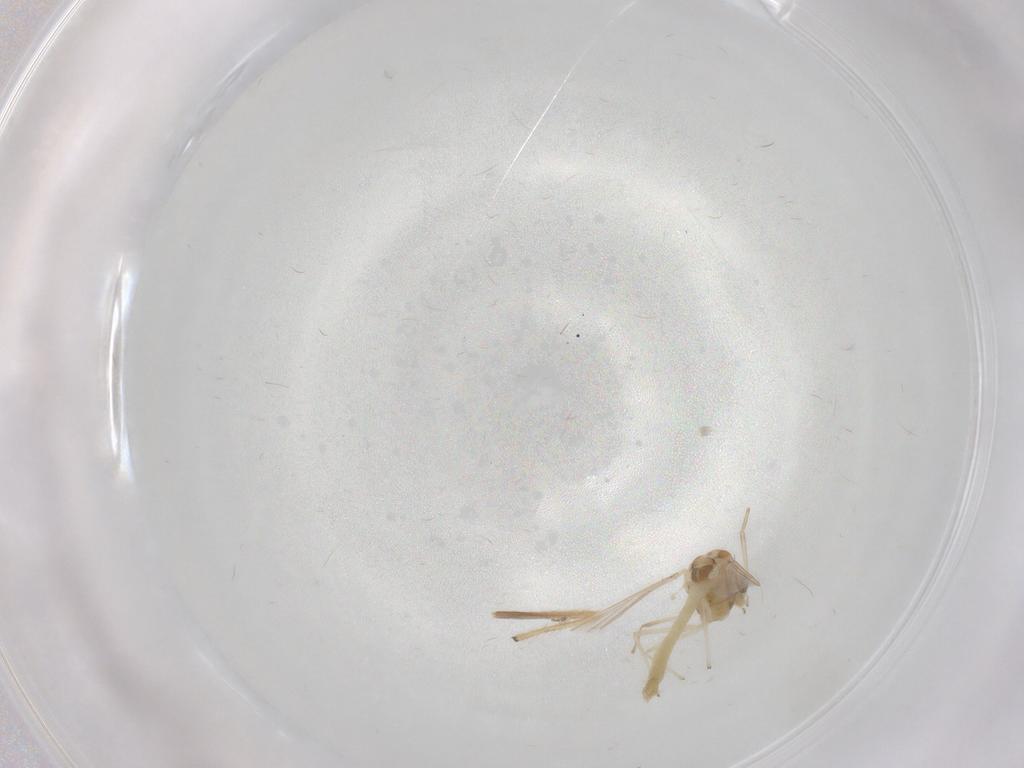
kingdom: Animalia
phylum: Arthropoda
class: Insecta
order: Diptera
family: Chironomidae
